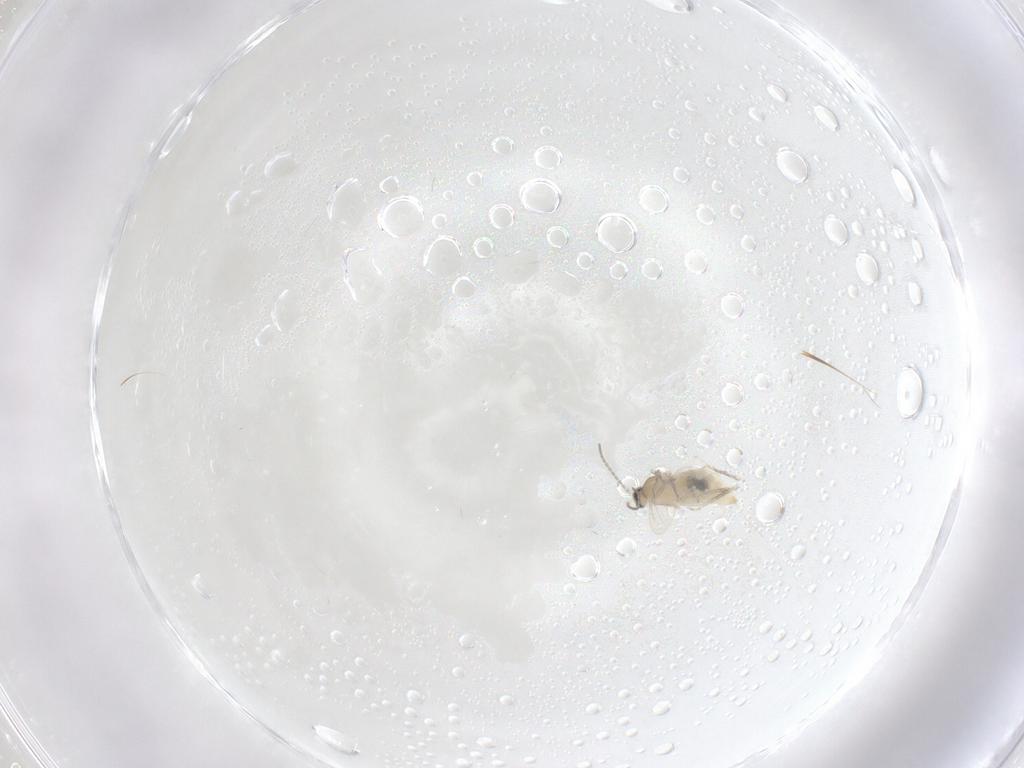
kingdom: Animalia
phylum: Arthropoda
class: Insecta
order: Diptera
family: Cecidomyiidae
